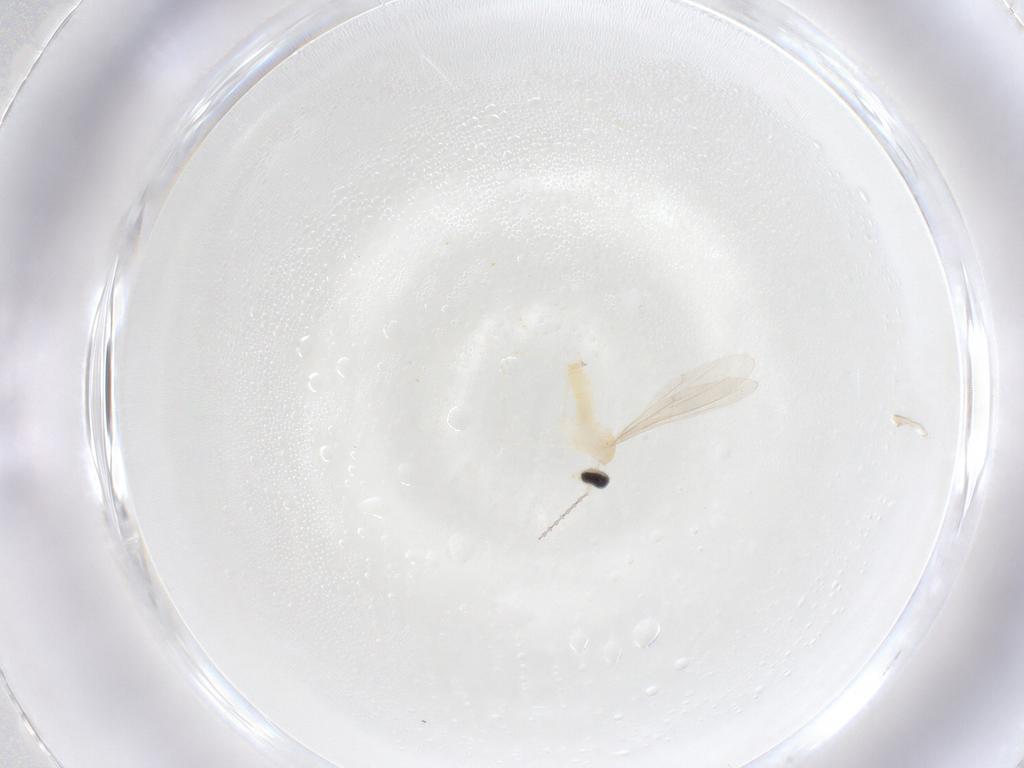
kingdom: Animalia
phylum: Arthropoda
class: Insecta
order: Diptera
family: Cecidomyiidae
